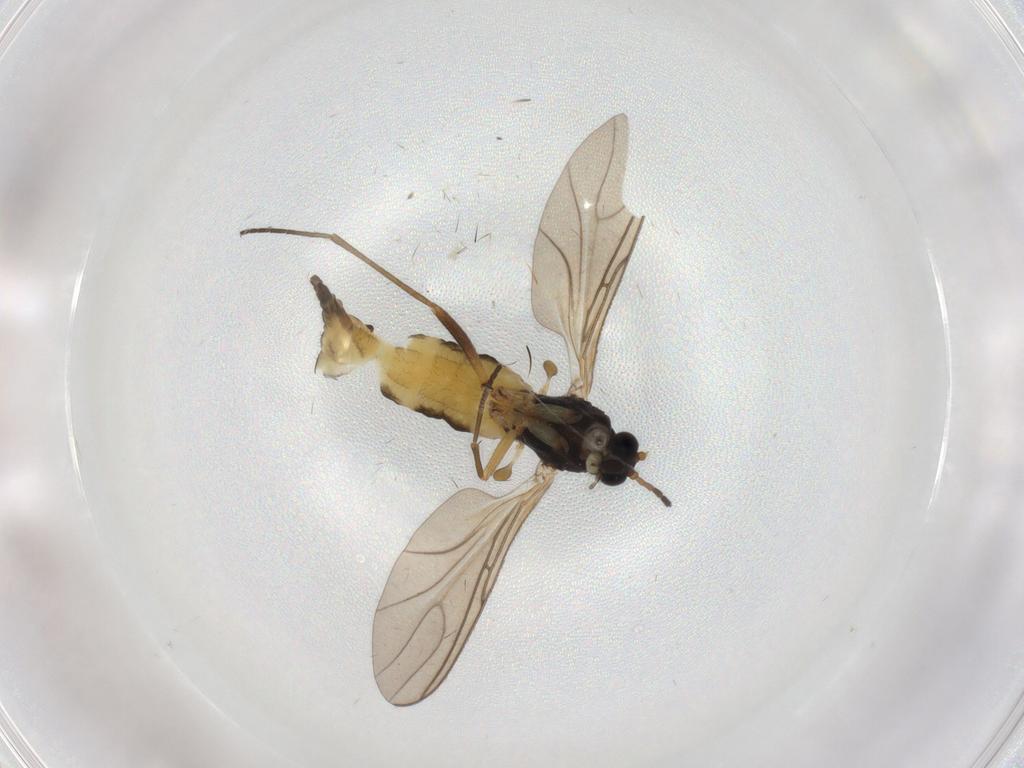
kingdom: Animalia
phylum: Arthropoda
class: Insecta
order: Diptera
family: Sciaridae
